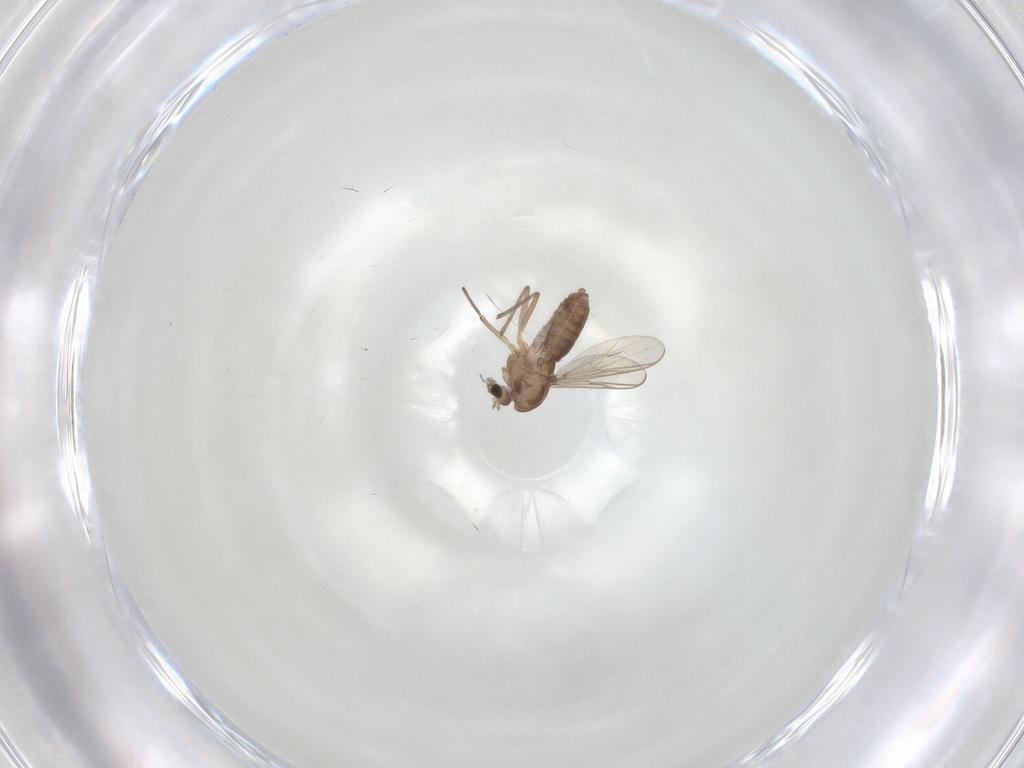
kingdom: Animalia
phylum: Arthropoda
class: Insecta
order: Diptera
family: Chironomidae
